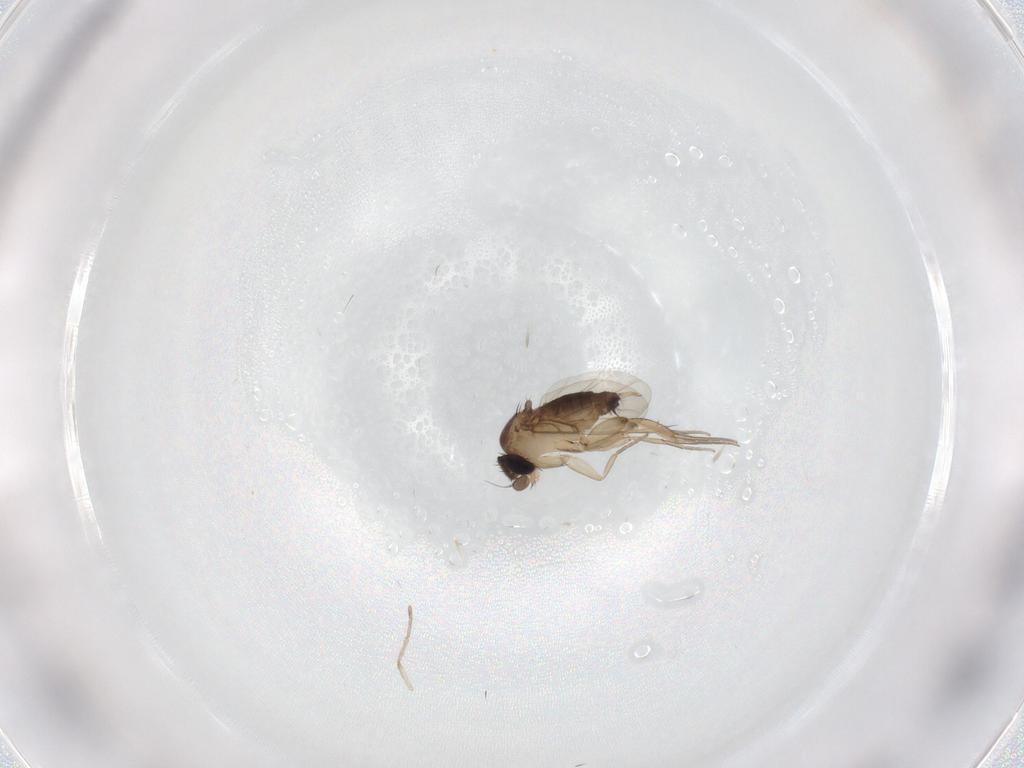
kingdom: Animalia
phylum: Arthropoda
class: Insecta
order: Diptera
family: Phoridae
